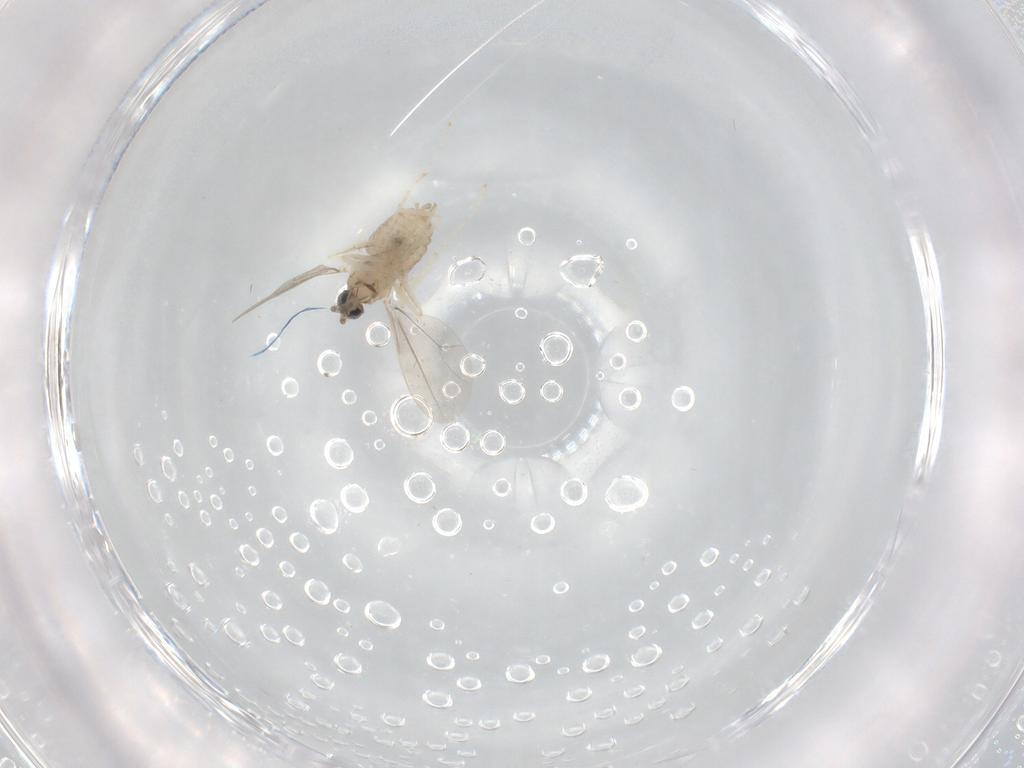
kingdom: Animalia
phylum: Arthropoda
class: Insecta
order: Diptera
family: Cecidomyiidae
